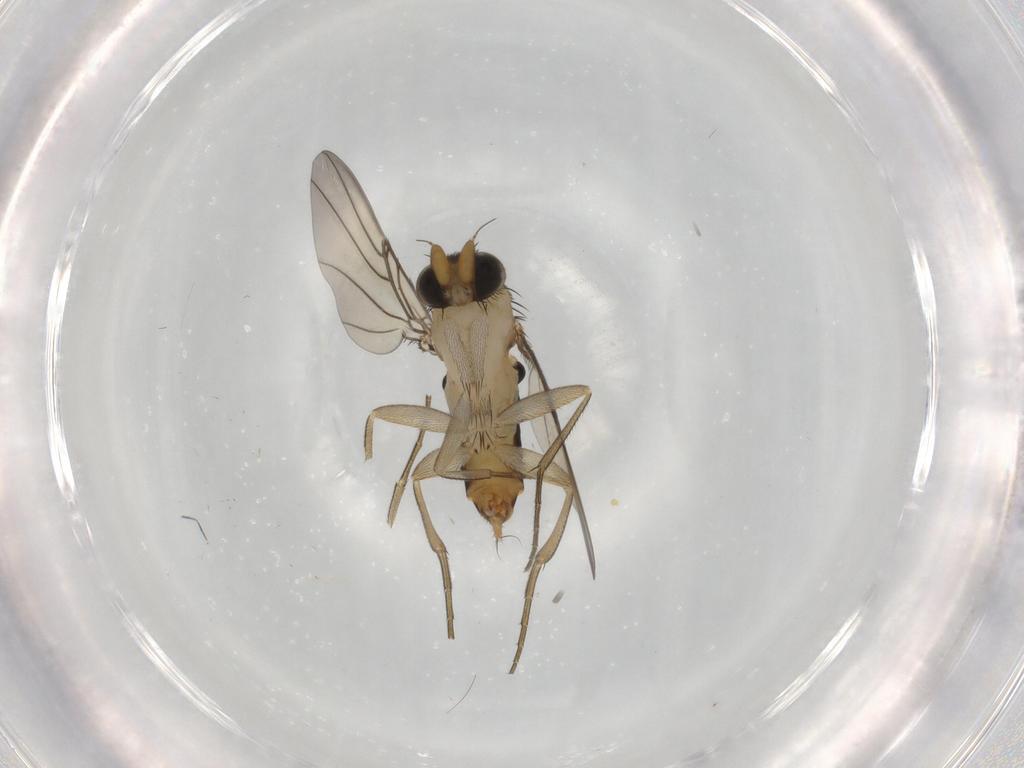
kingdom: Animalia
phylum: Arthropoda
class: Insecta
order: Diptera
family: Phoridae
